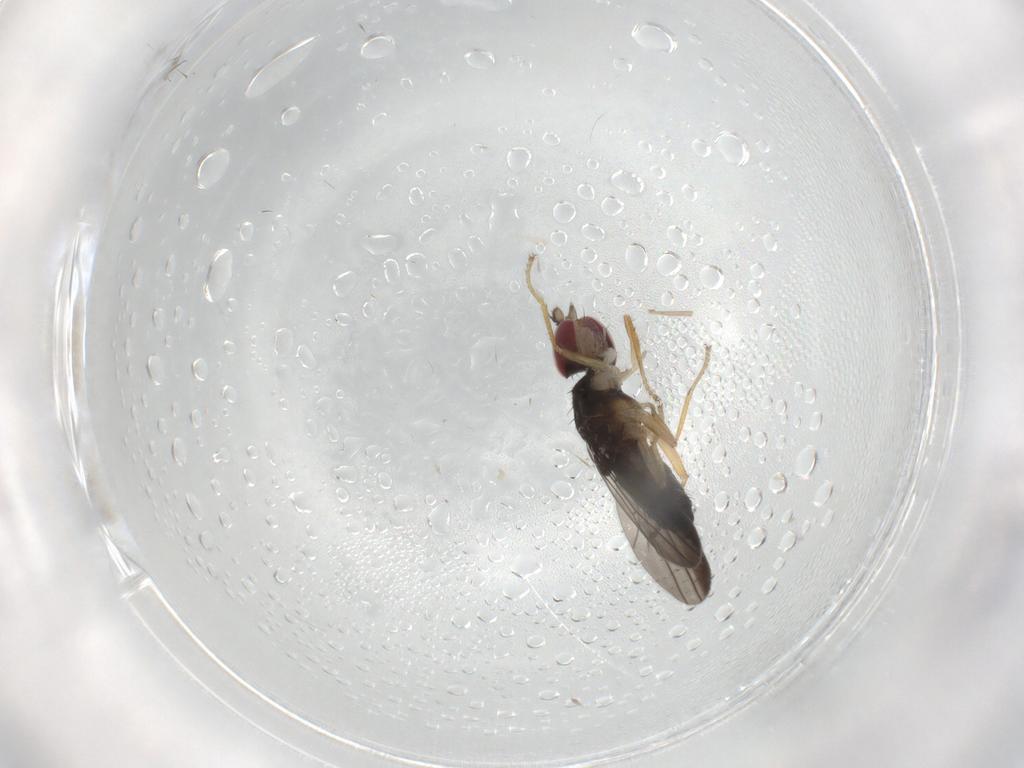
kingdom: Animalia
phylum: Arthropoda
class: Insecta
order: Diptera
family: Anthomyzidae
